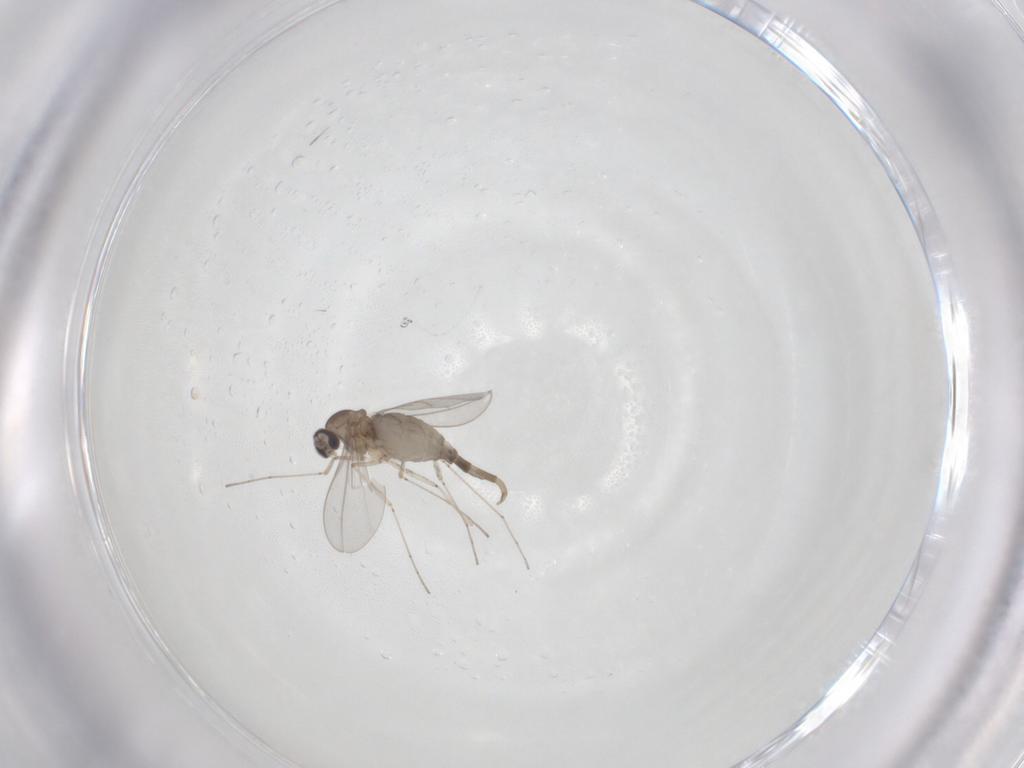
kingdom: Animalia
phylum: Arthropoda
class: Insecta
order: Diptera
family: Cecidomyiidae
